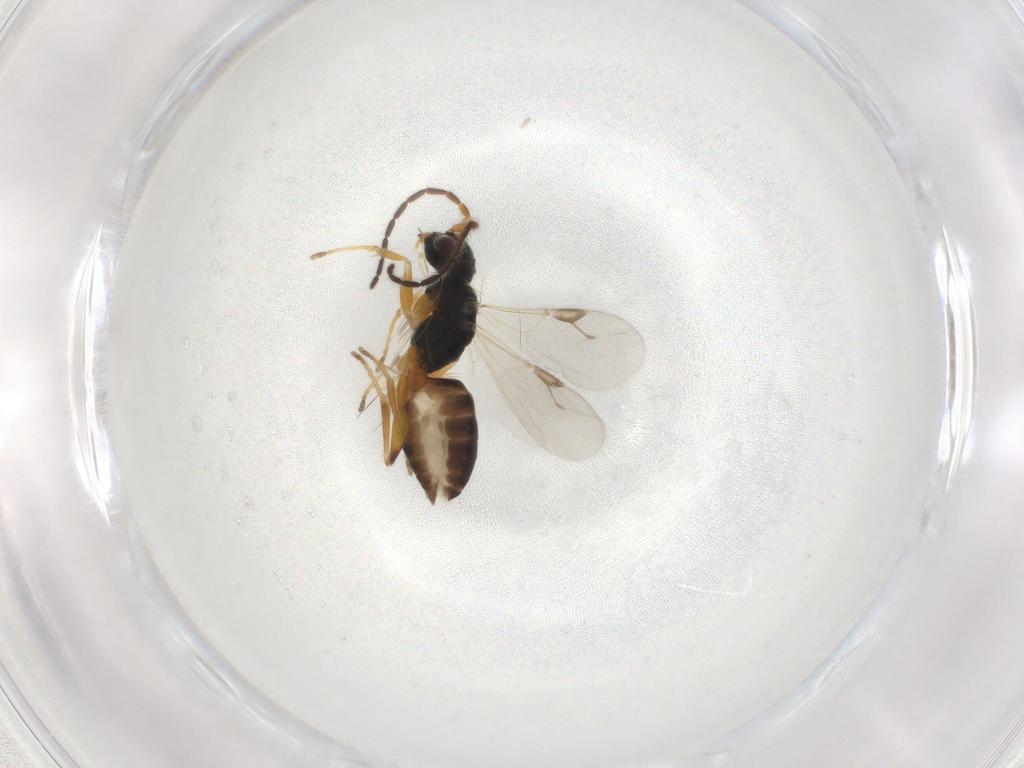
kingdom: Animalia
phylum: Arthropoda
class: Insecta
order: Hymenoptera
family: Dryinidae
